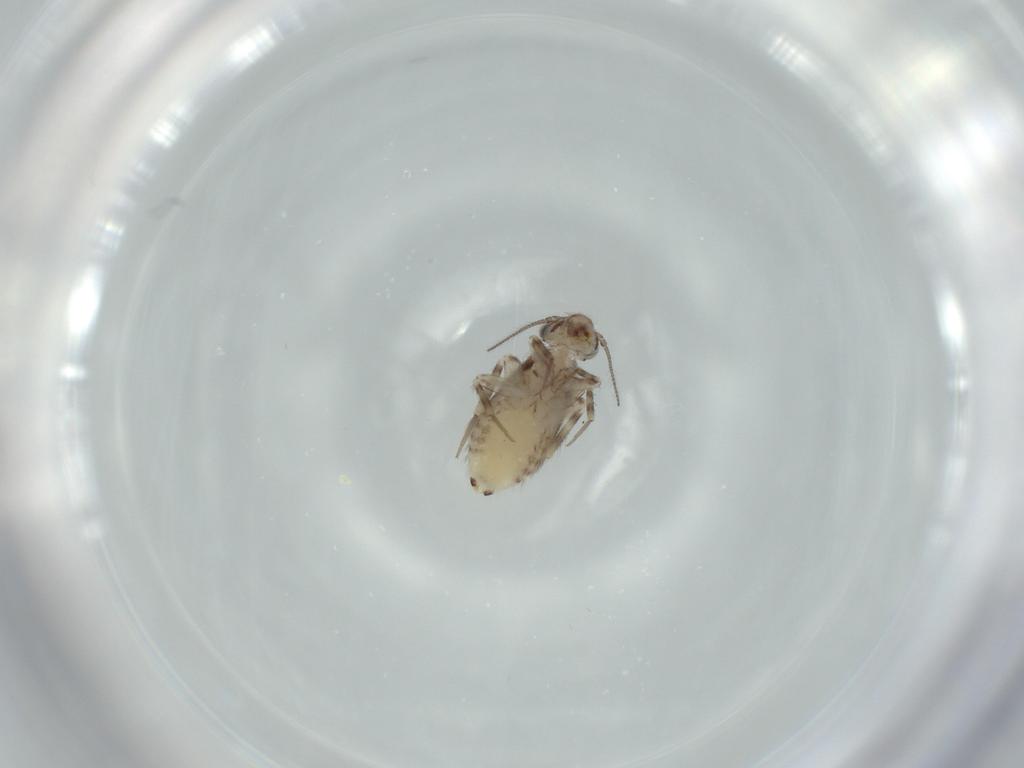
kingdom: Animalia
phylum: Arthropoda
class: Insecta
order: Psocodea
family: Lepidopsocidae
